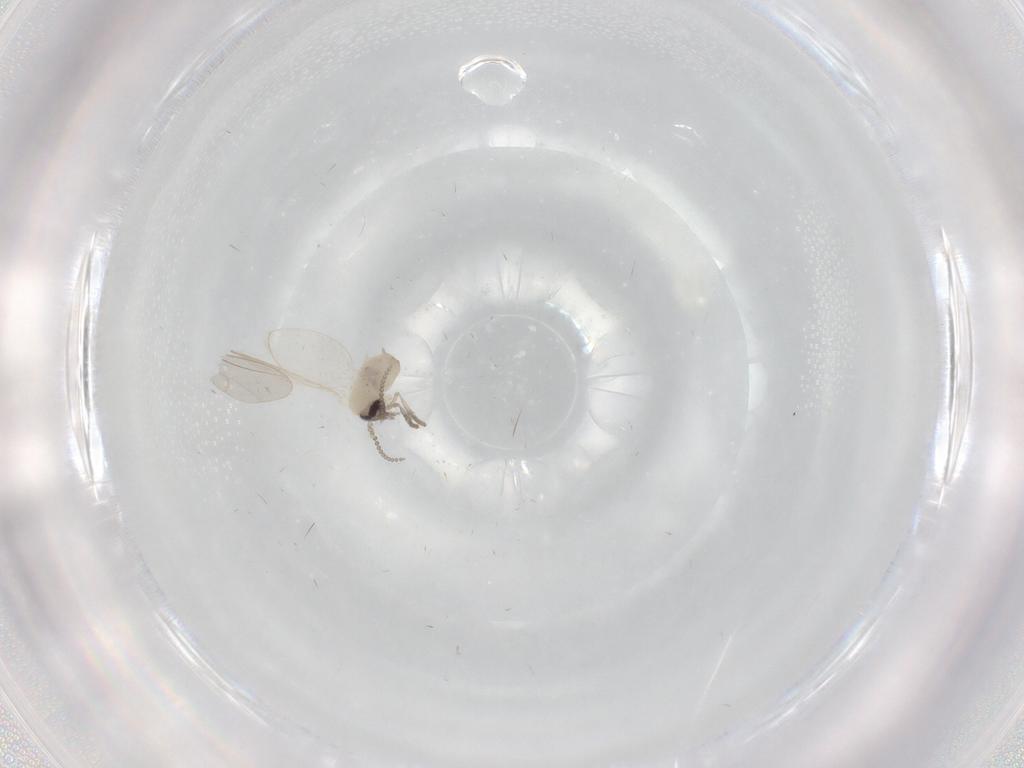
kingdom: Animalia
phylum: Arthropoda
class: Insecta
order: Diptera
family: Psychodidae
